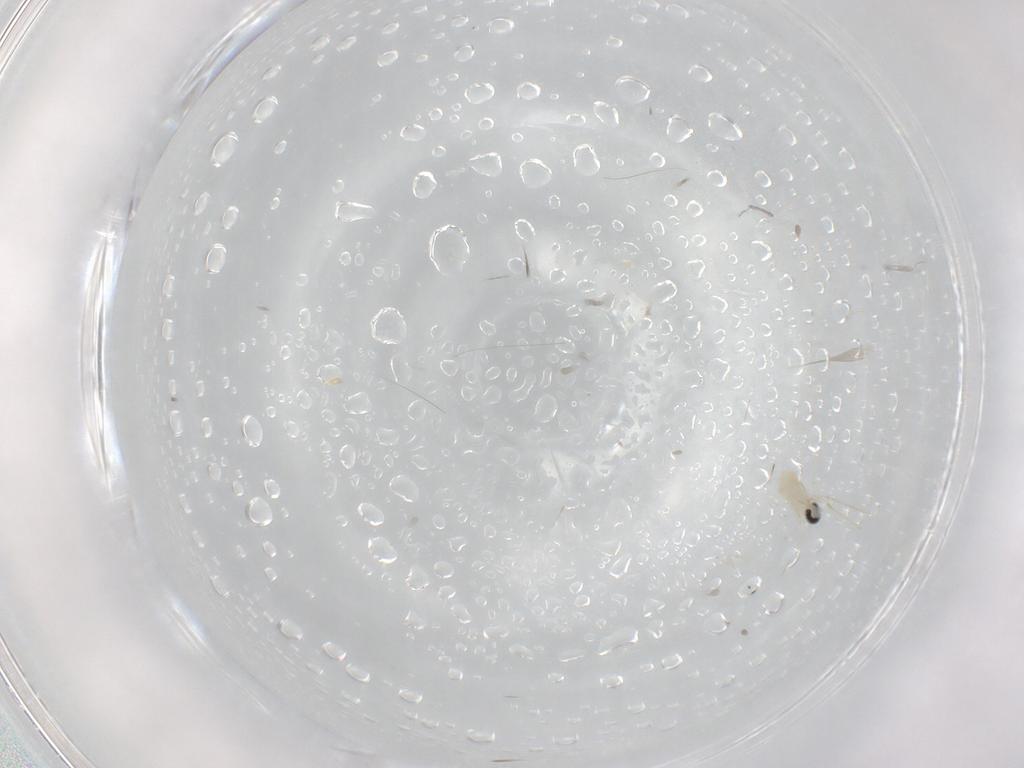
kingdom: Animalia
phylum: Arthropoda
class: Insecta
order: Diptera
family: Cecidomyiidae
